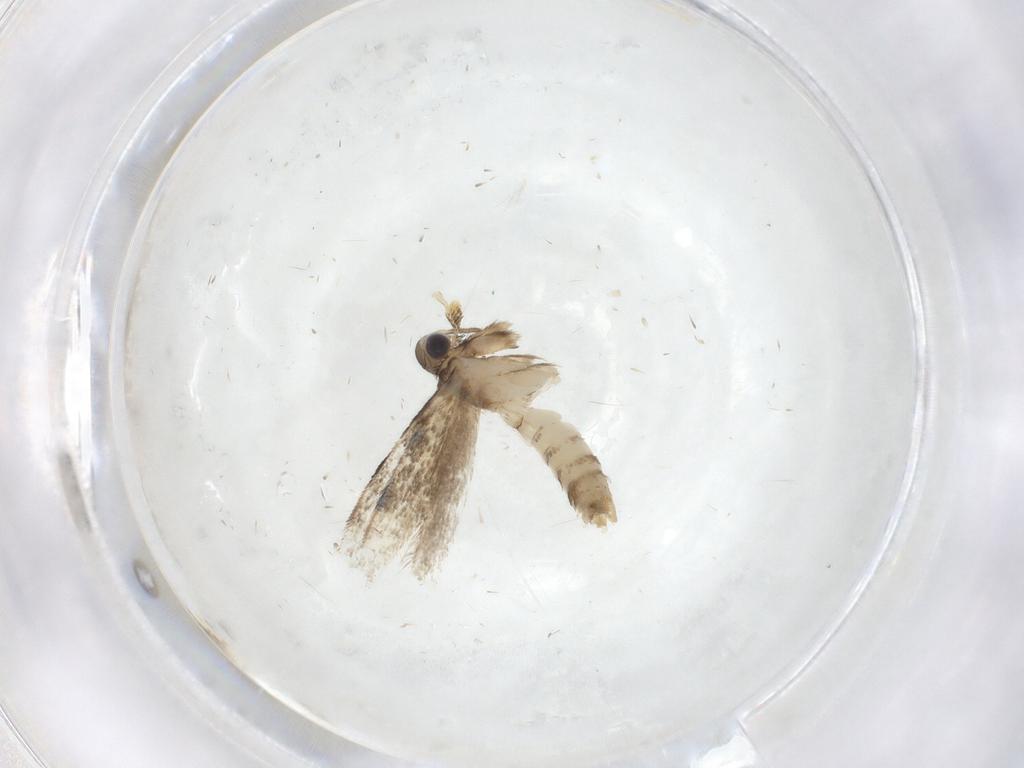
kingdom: Animalia
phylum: Arthropoda
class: Insecta
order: Lepidoptera
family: Dryadaulidae
